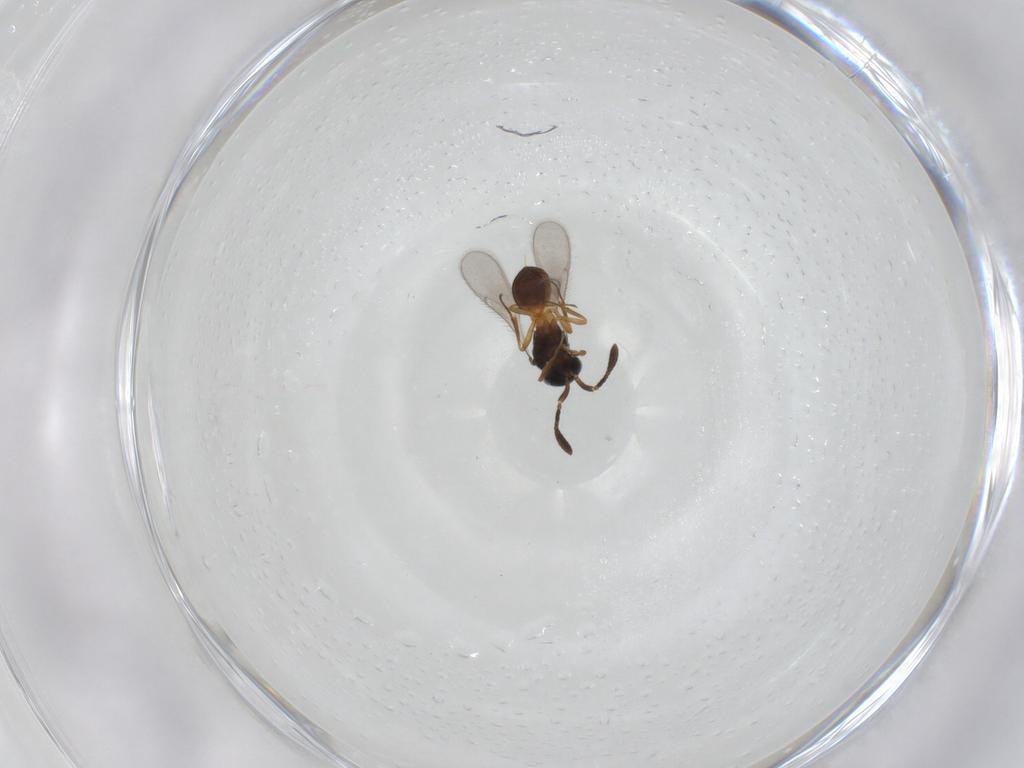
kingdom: Animalia
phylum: Arthropoda
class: Insecta
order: Hymenoptera
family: Scelionidae
